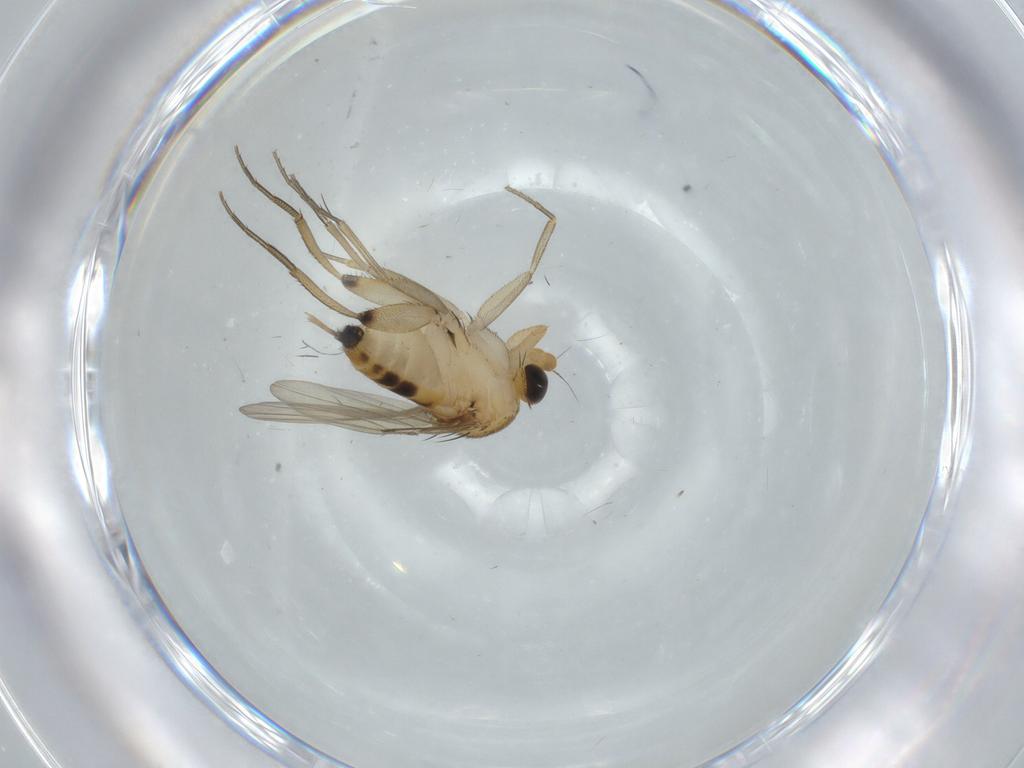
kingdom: Animalia
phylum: Arthropoda
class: Insecta
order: Diptera
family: Phoridae
